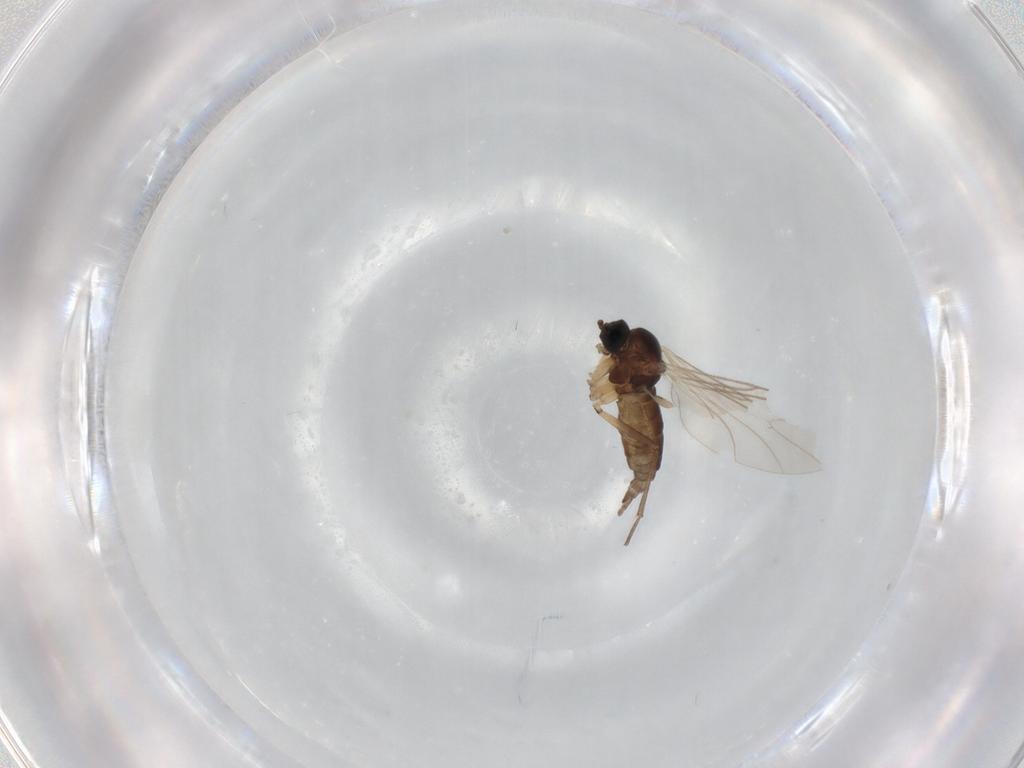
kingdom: Animalia
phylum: Arthropoda
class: Insecta
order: Diptera
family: Sciaridae
